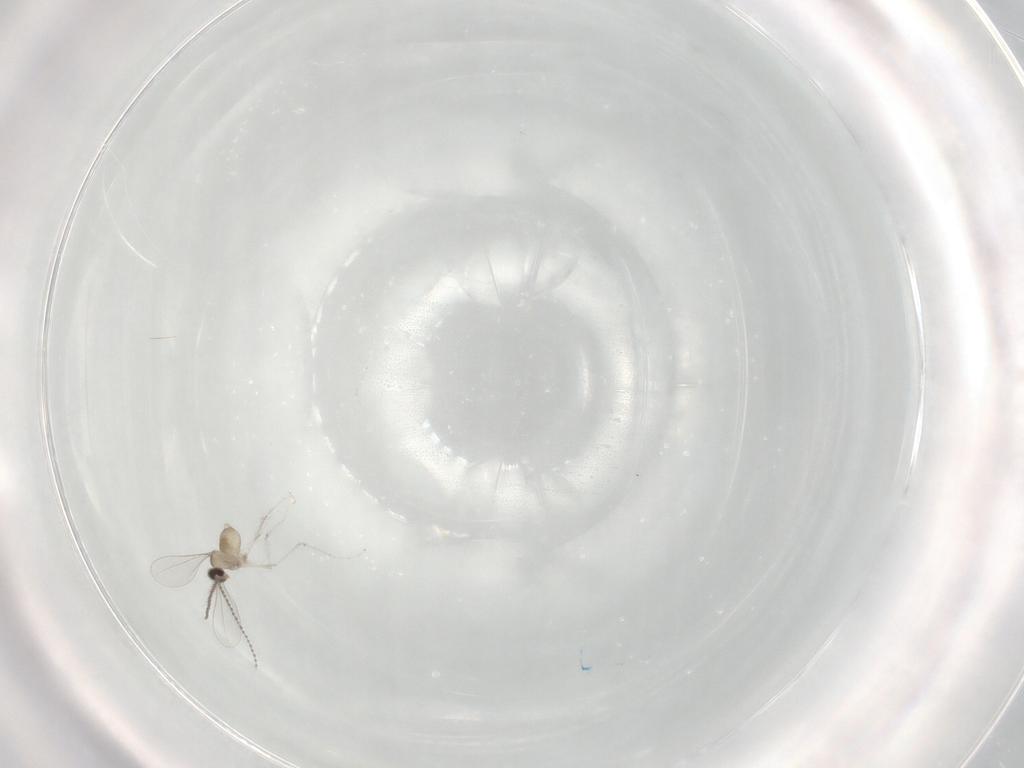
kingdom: Animalia
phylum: Arthropoda
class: Insecta
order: Diptera
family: Cecidomyiidae
